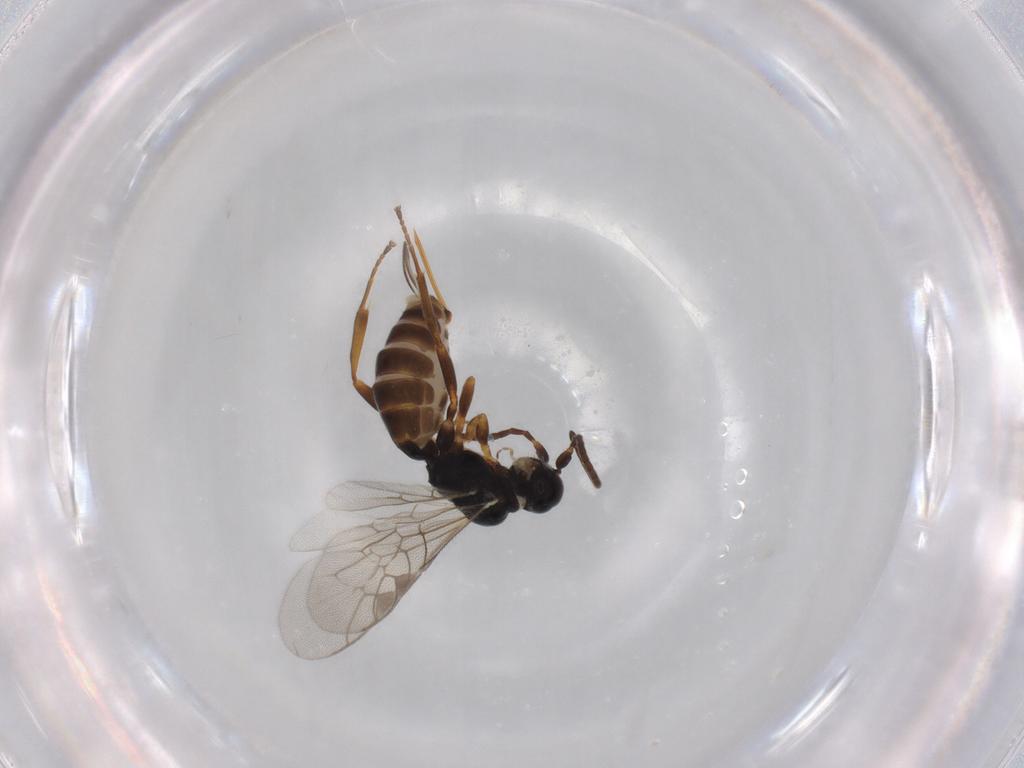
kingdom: Animalia
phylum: Arthropoda
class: Insecta
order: Hymenoptera
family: Ichneumonidae
